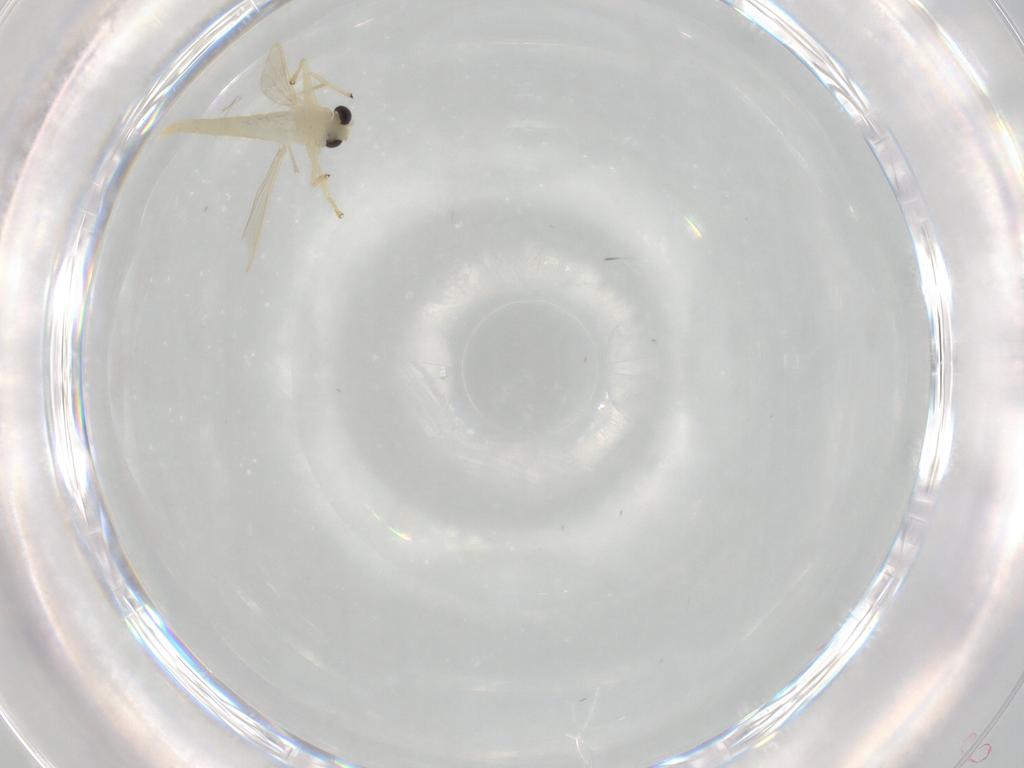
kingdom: Animalia
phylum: Arthropoda
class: Insecta
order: Diptera
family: Chironomidae
